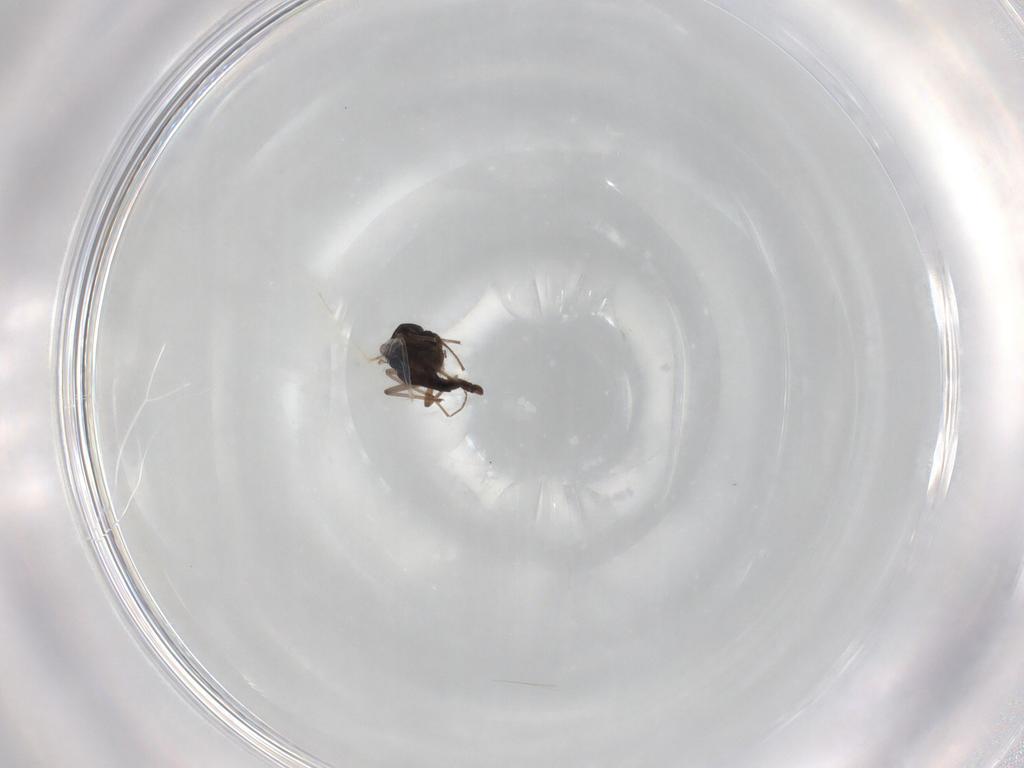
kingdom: Animalia
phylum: Arthropoda
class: Insecta
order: Diptera
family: Chironomidae
